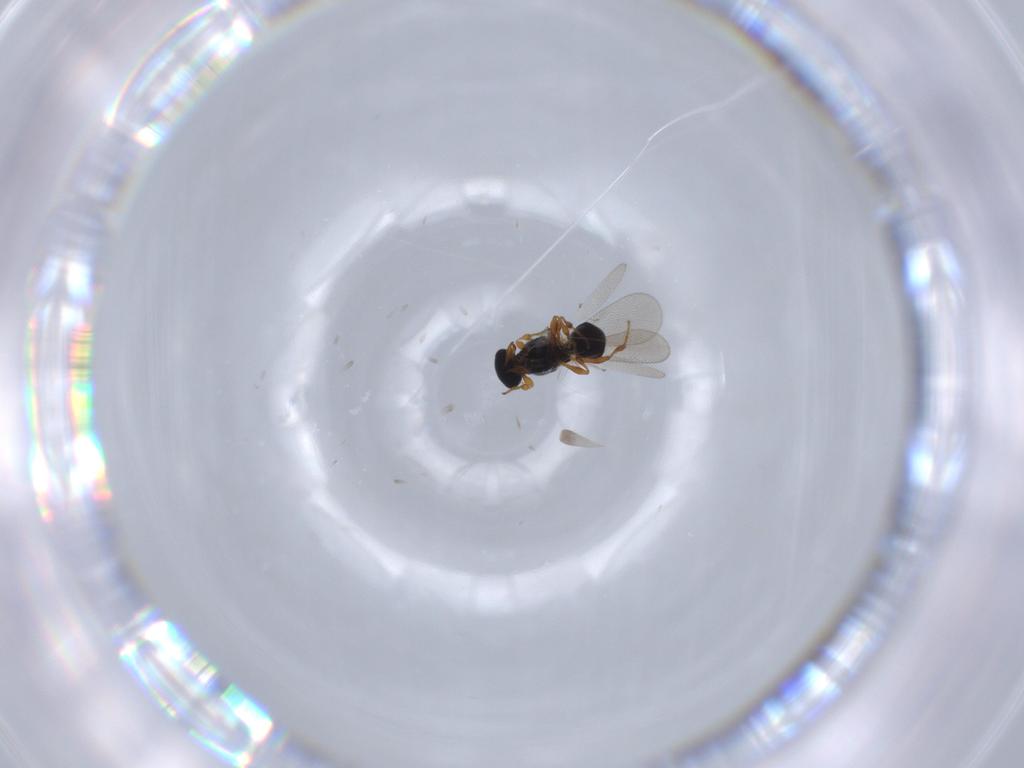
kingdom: Animalia
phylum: Arthropoda
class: Insecta
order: Hymenoptera
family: Platygastridae
